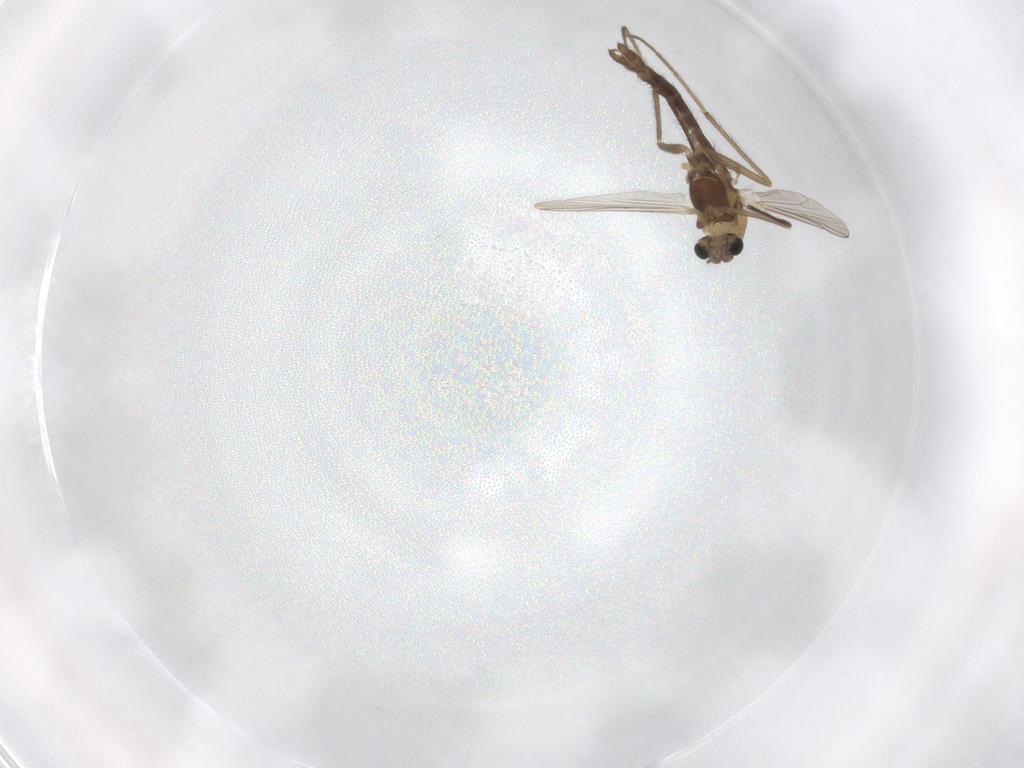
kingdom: Animalia
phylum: Arthropoda
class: Insecta
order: Diptera
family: Chironomidae
